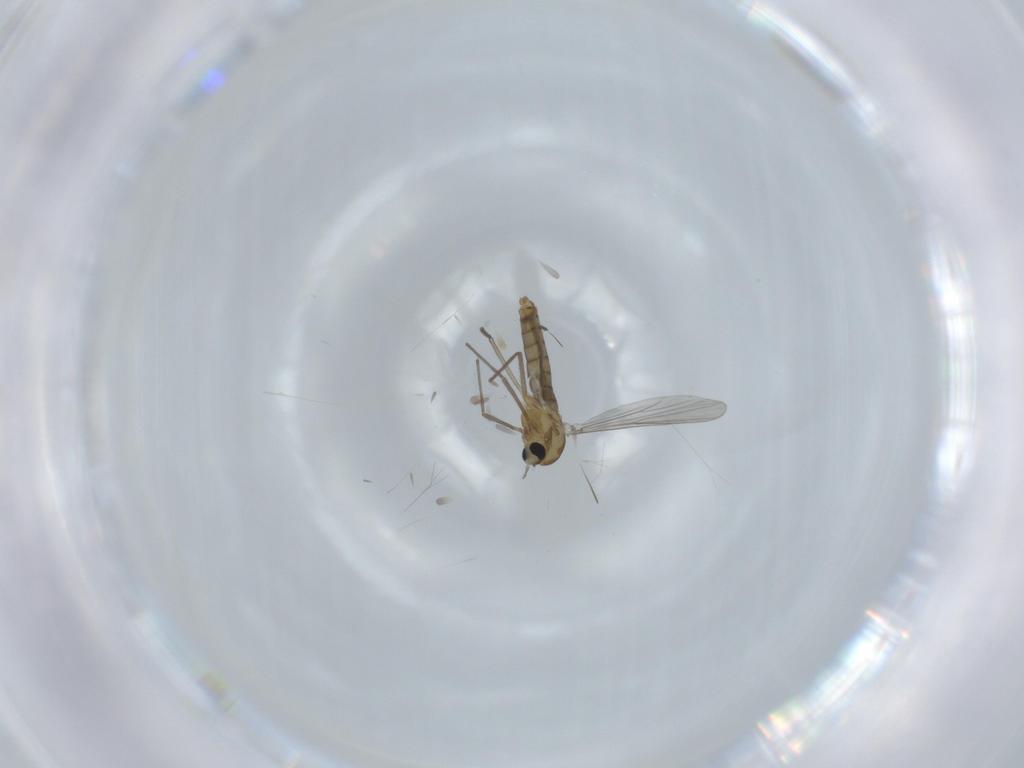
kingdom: Animalia
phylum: Arthropoda
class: Insecta
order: Diptera
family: Chironomidae
